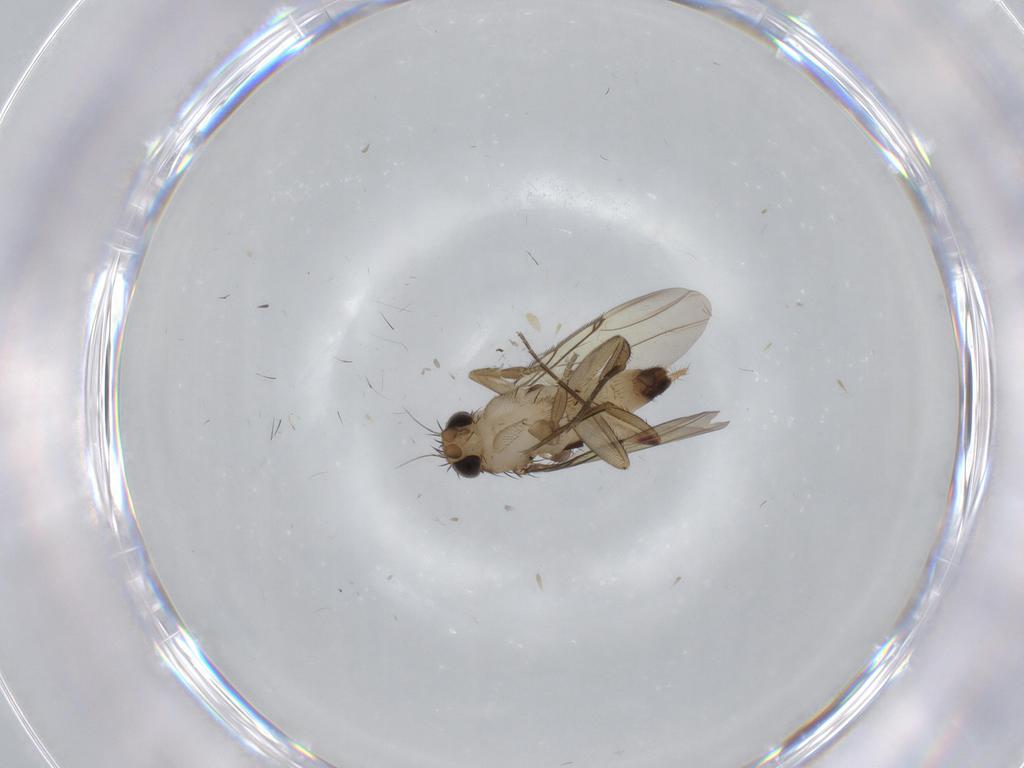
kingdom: Animalia
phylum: Arthropoda
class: Insecta
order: Diptera
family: Phoridae
